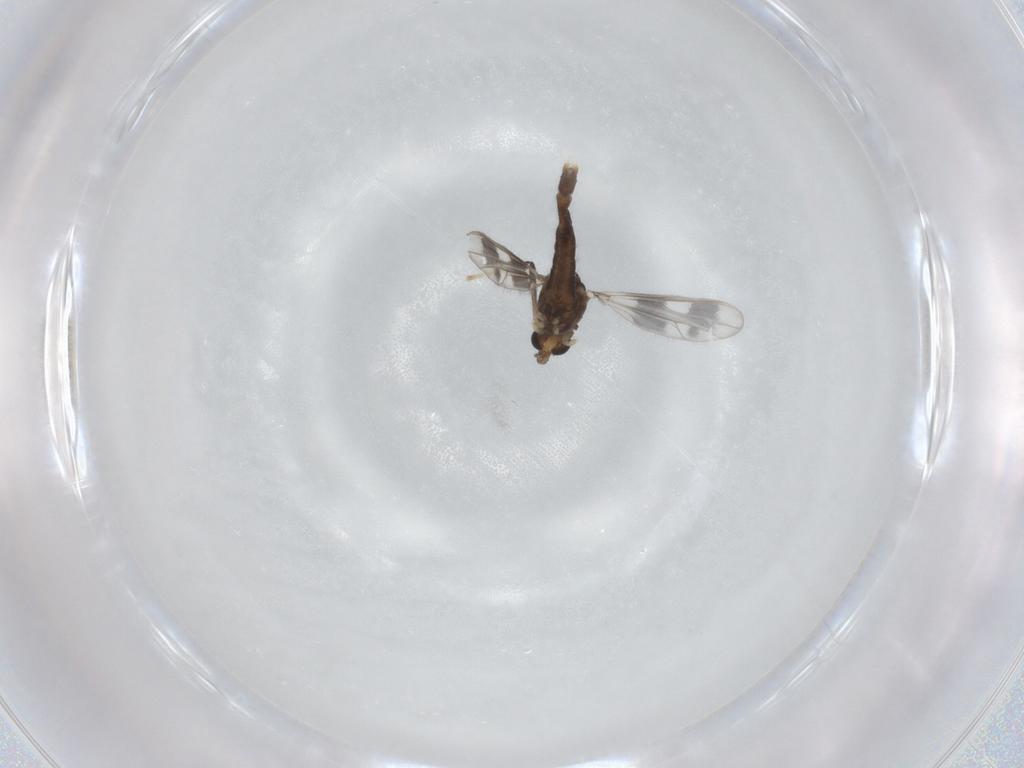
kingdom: Animalia
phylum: Arthropoda
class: Insecta
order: Diptera
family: Chironomidae
